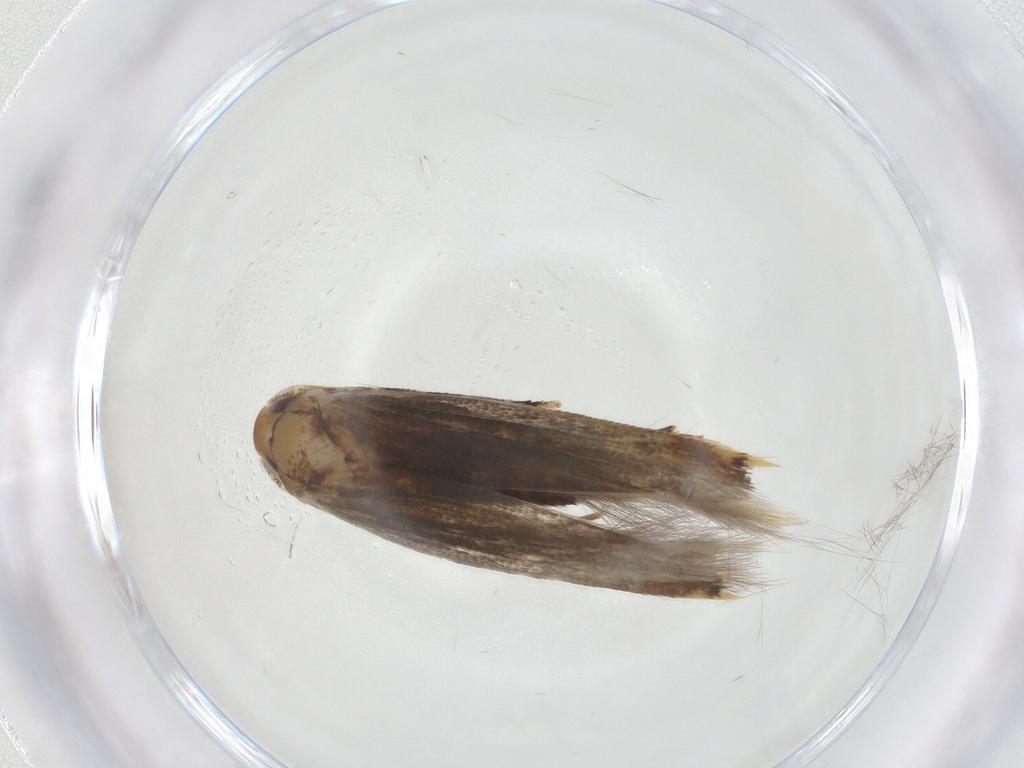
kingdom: Animalia
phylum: Arthropoda
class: Insecta
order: Lepidoptera
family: Momphidae
